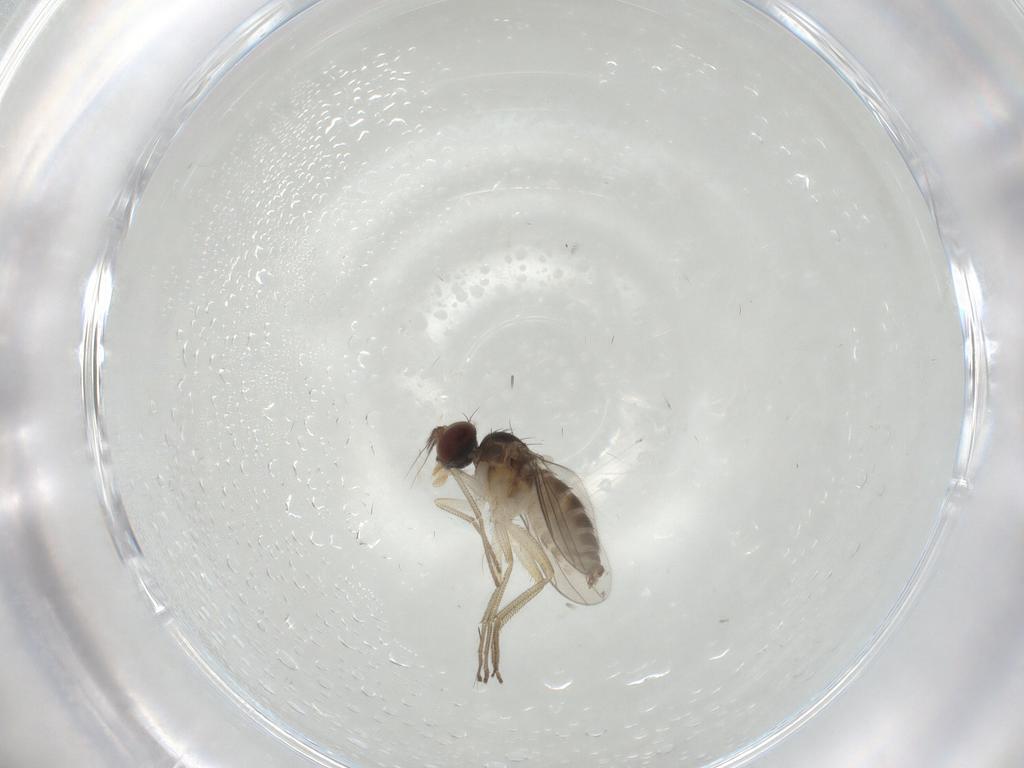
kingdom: Animalia
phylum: Arthropoda
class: Insecta
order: Diptera
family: Dolichopodidae
